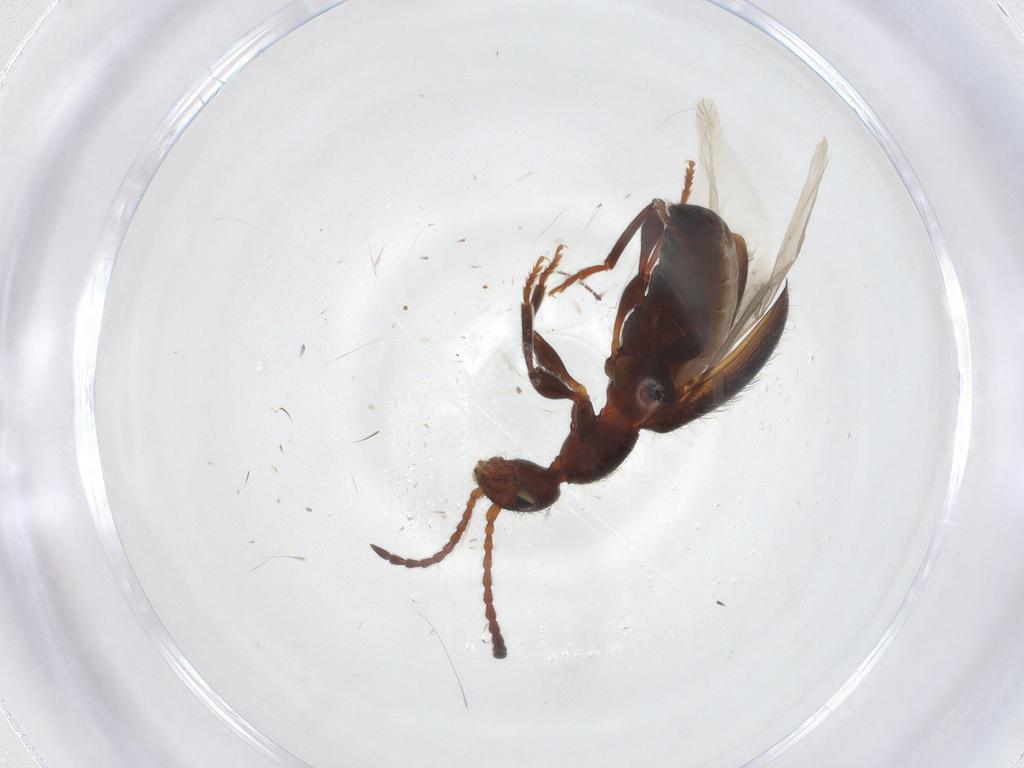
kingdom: Animalia
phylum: Arthropoda
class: Insecta
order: Coleoptera
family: Anthicidae
